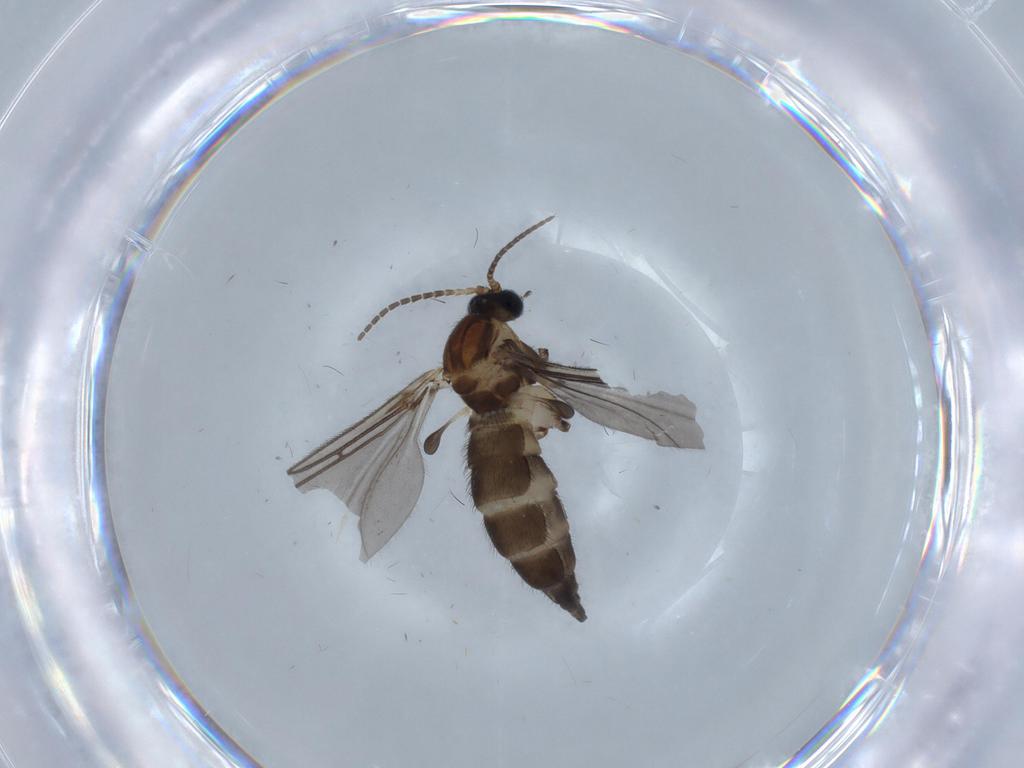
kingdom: Animalia
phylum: Arthropoda
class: Insecta
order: Diptera
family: Sciaridae
